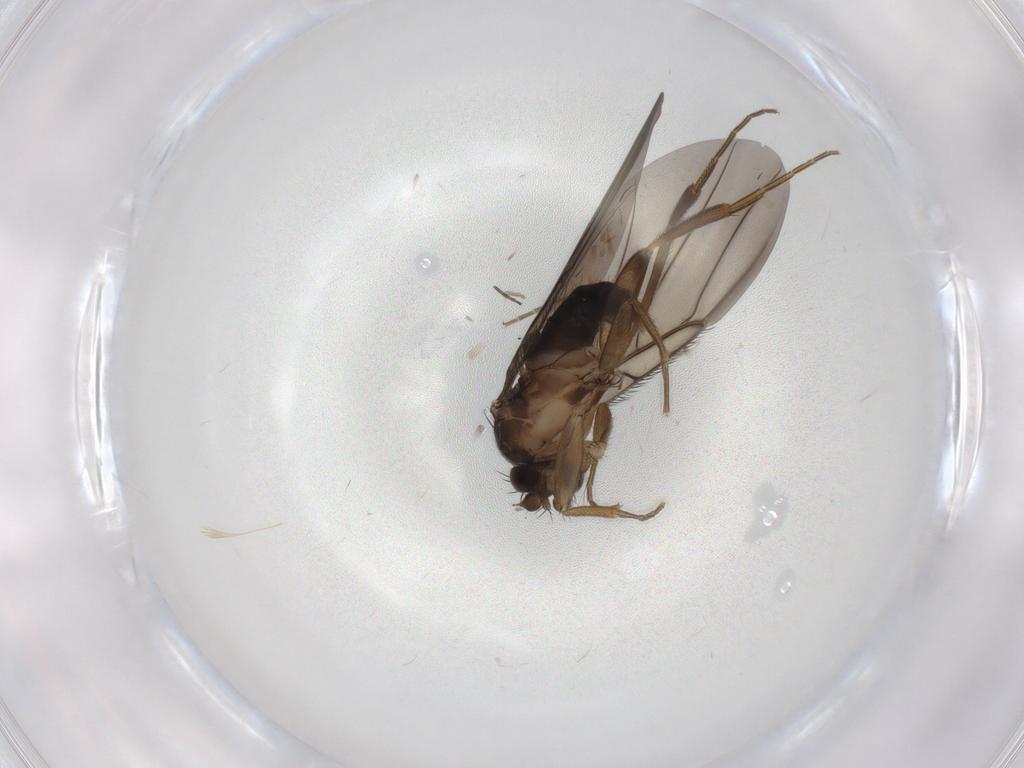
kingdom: Animalia
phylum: Arthropoda
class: Insecta
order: Diptera
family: Phoridae
